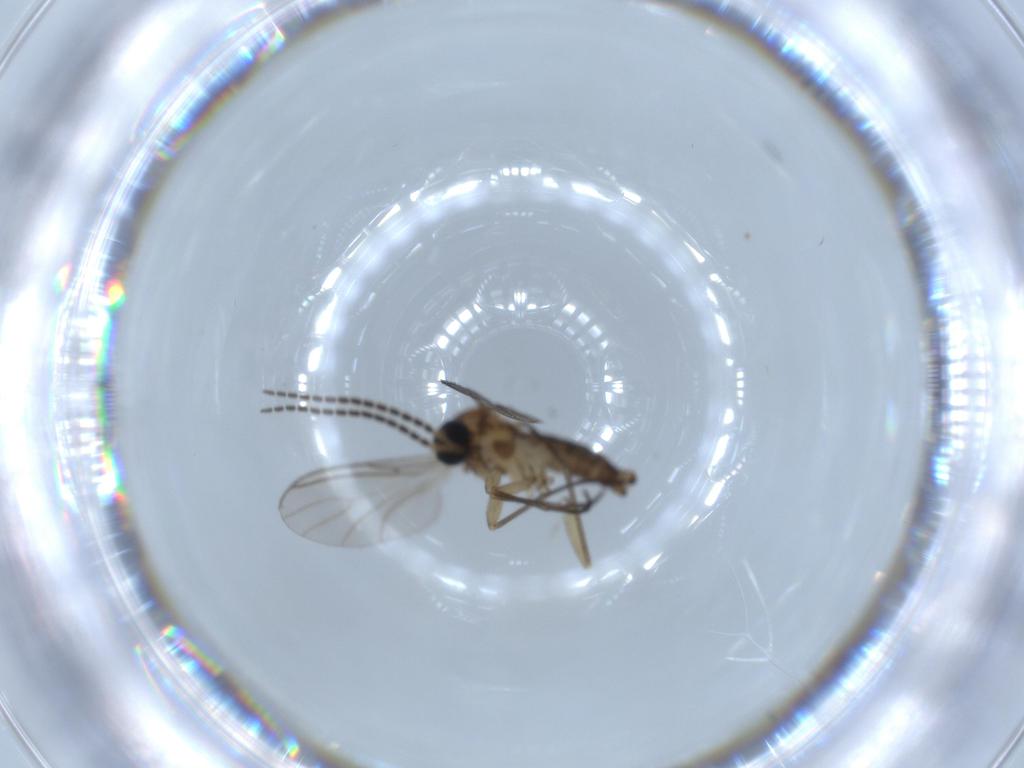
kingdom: Animalia
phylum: Arthropoda
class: Insecta
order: Diptera
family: Sciaridae
